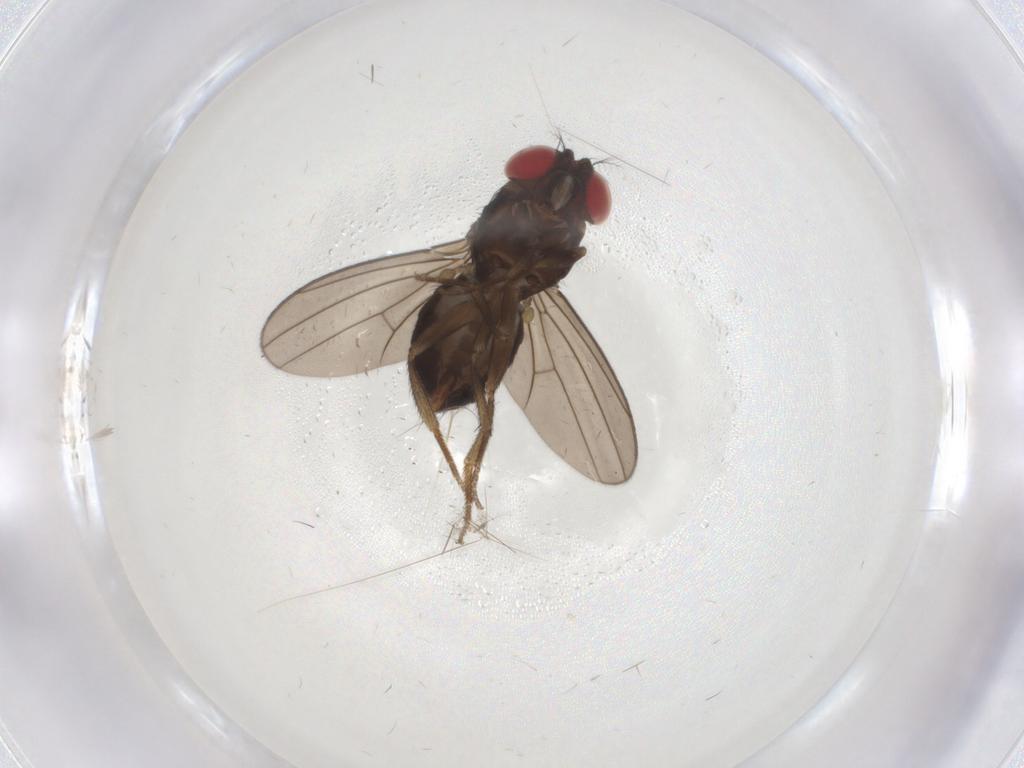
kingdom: Animalia
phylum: Arthropoda
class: Insecta
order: Diptera
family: Drosophilidae
